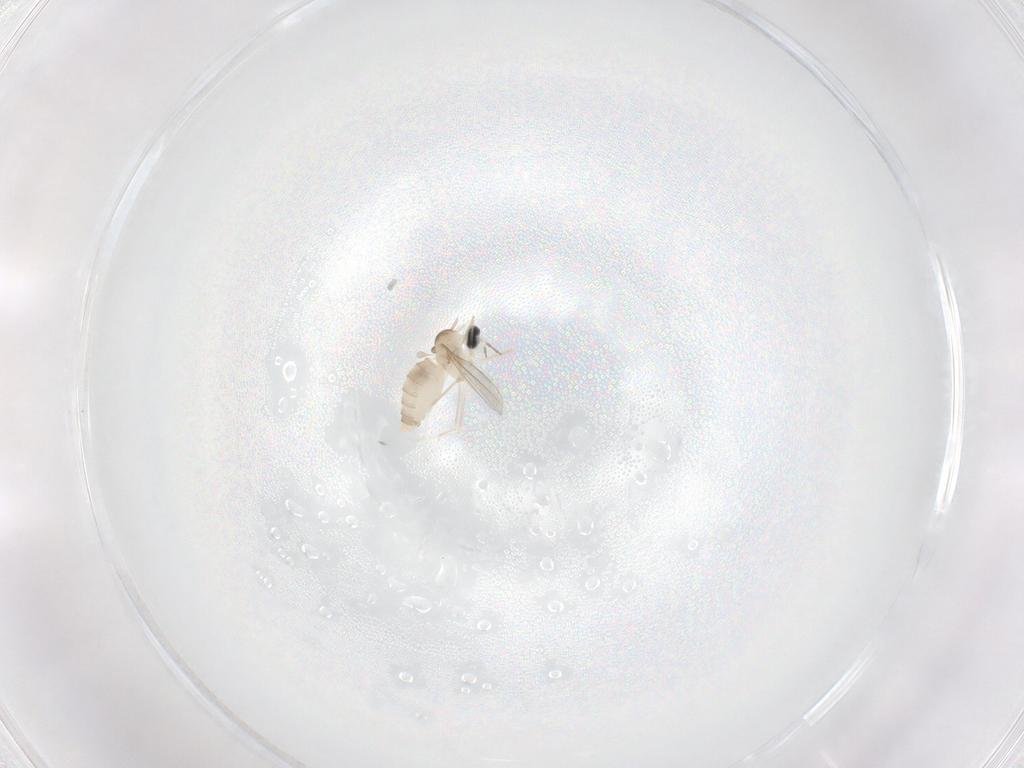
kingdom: Animalia
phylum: Arthropoda
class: Insecta
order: Diptera
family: Cecidomyiidae
